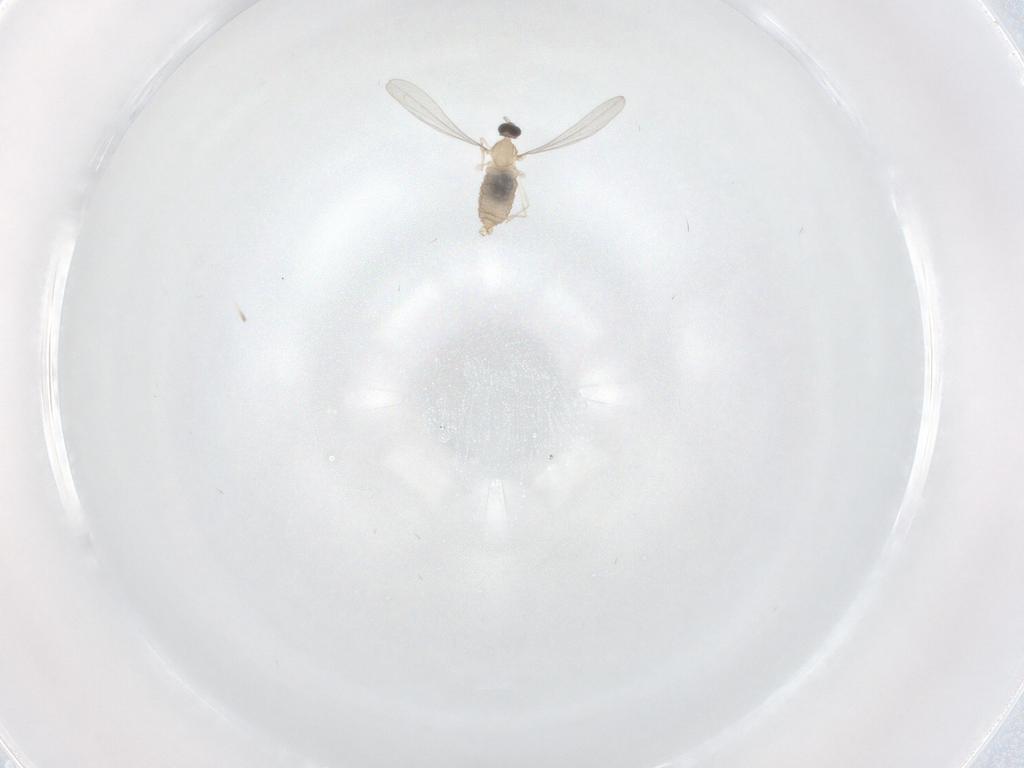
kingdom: Animalia
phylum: Arthropoda
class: Insecta
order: Diptera
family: Ceratopogonidae
